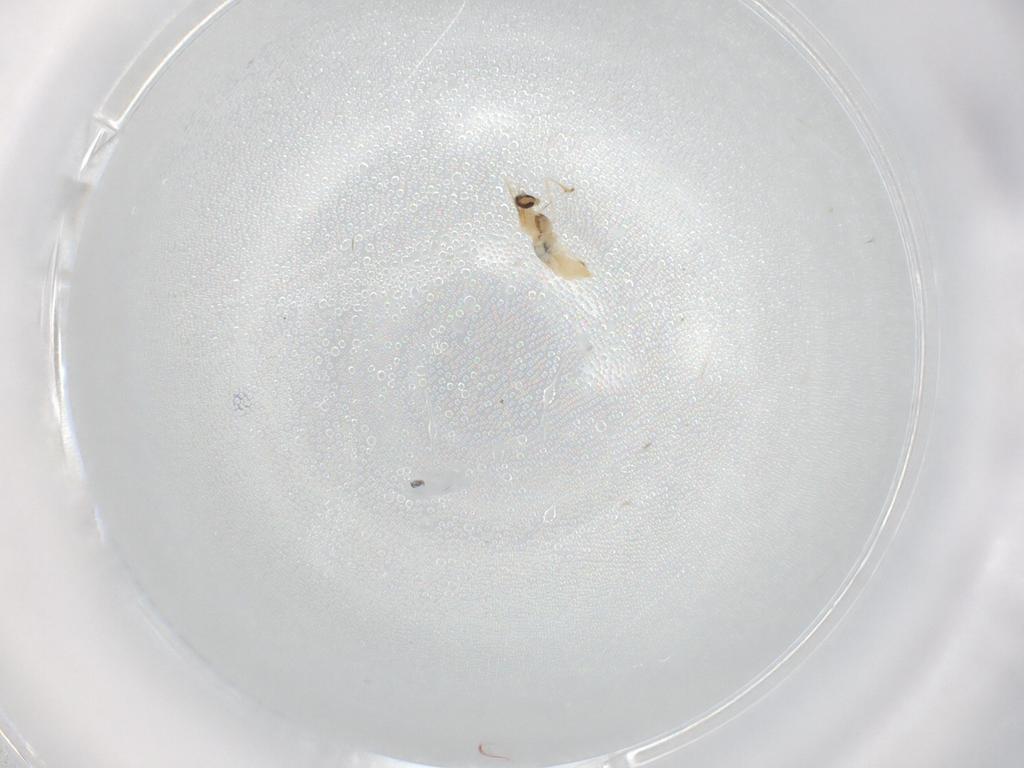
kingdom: Animalia
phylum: Arthropoda
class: Insecta
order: Diptera
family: Cecidomyiidae
